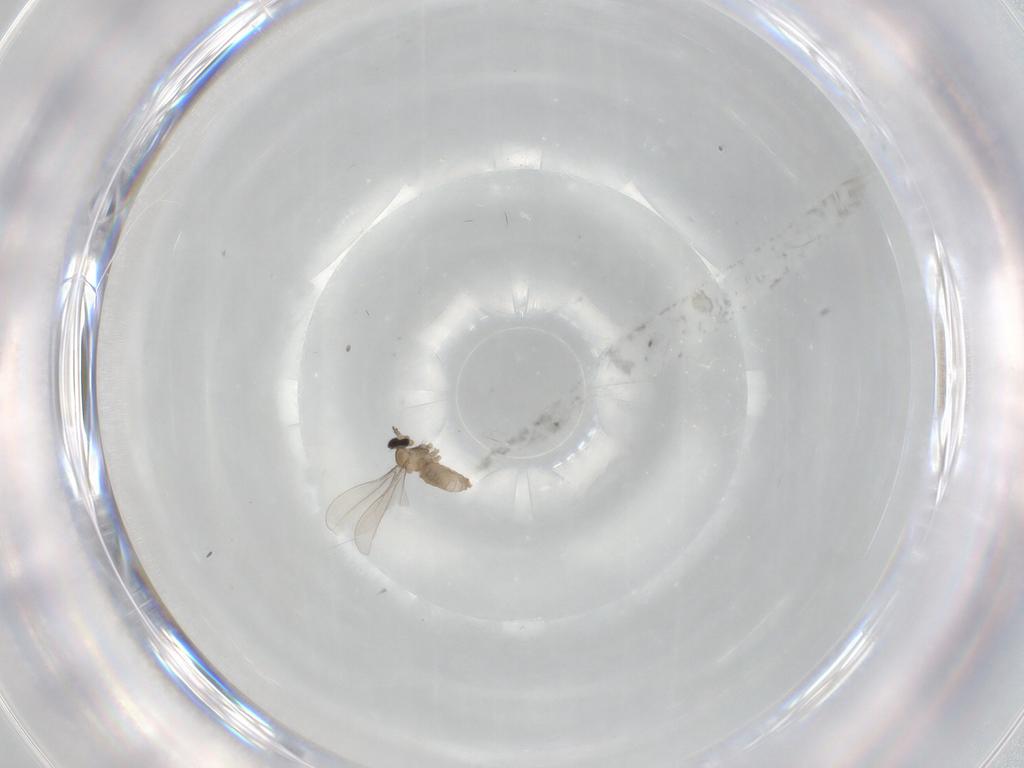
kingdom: Animalia
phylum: Arthropoda
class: Insecta
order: Diptera
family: Cecidomyiidae
